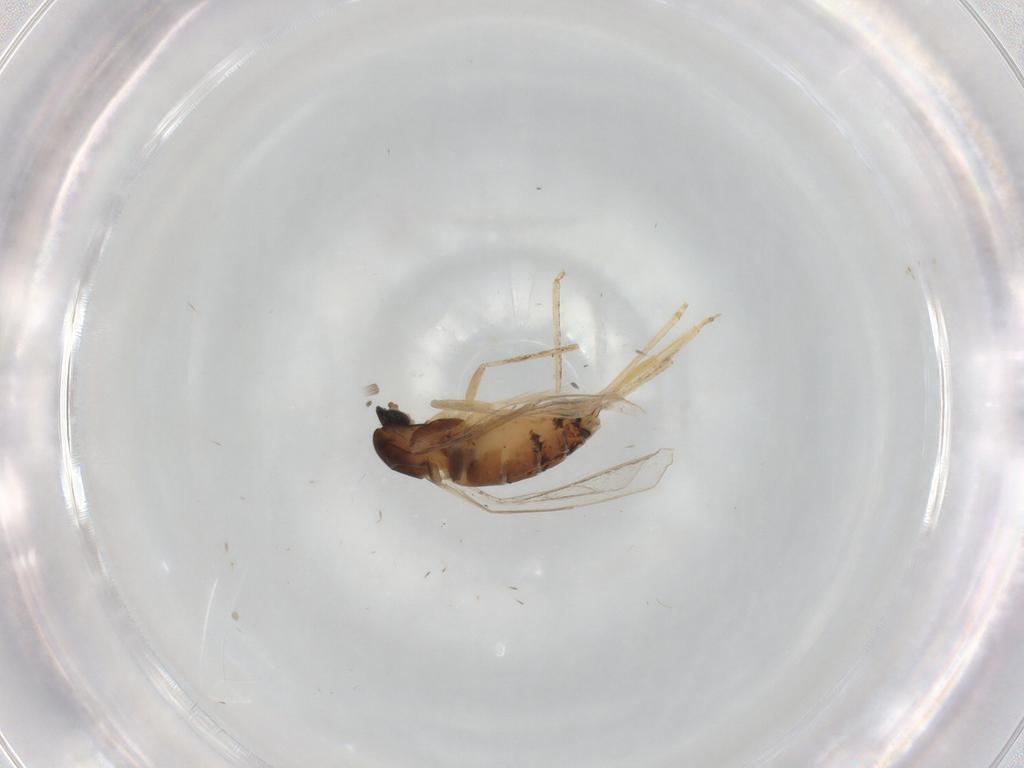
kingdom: Animalia
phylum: Arthropoda
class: Insecta
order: Diptera
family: Cecidomyiidae
